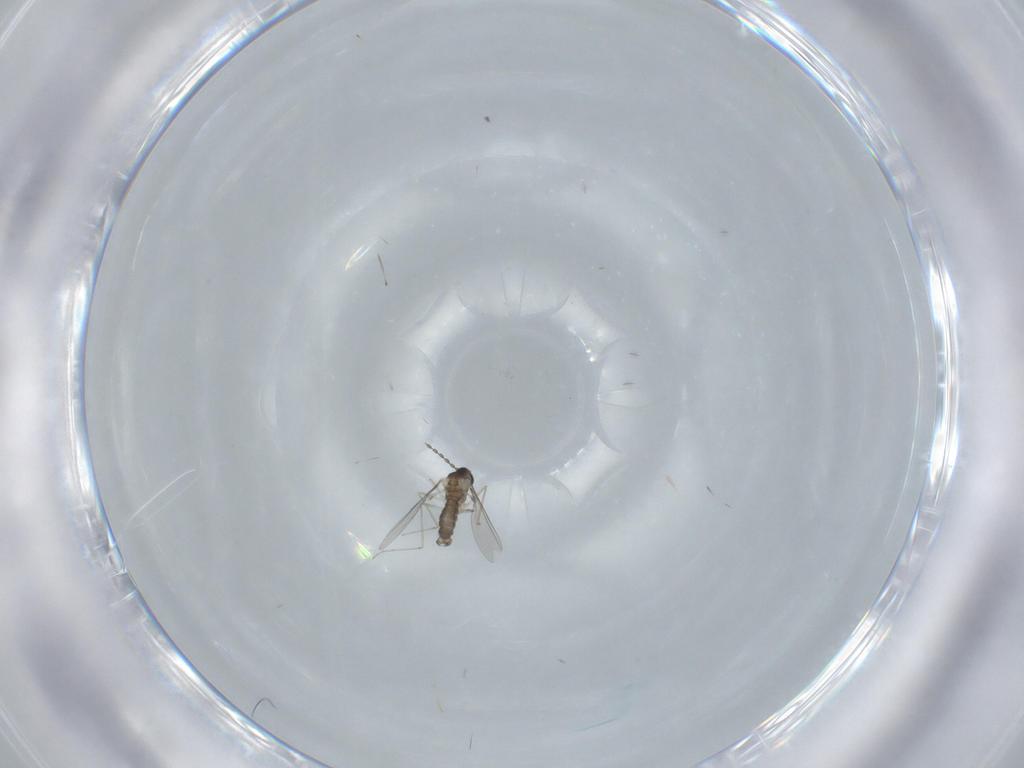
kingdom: Animalia
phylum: Arthropoda
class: Insecta
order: Diptera
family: Cecidomyiidae
